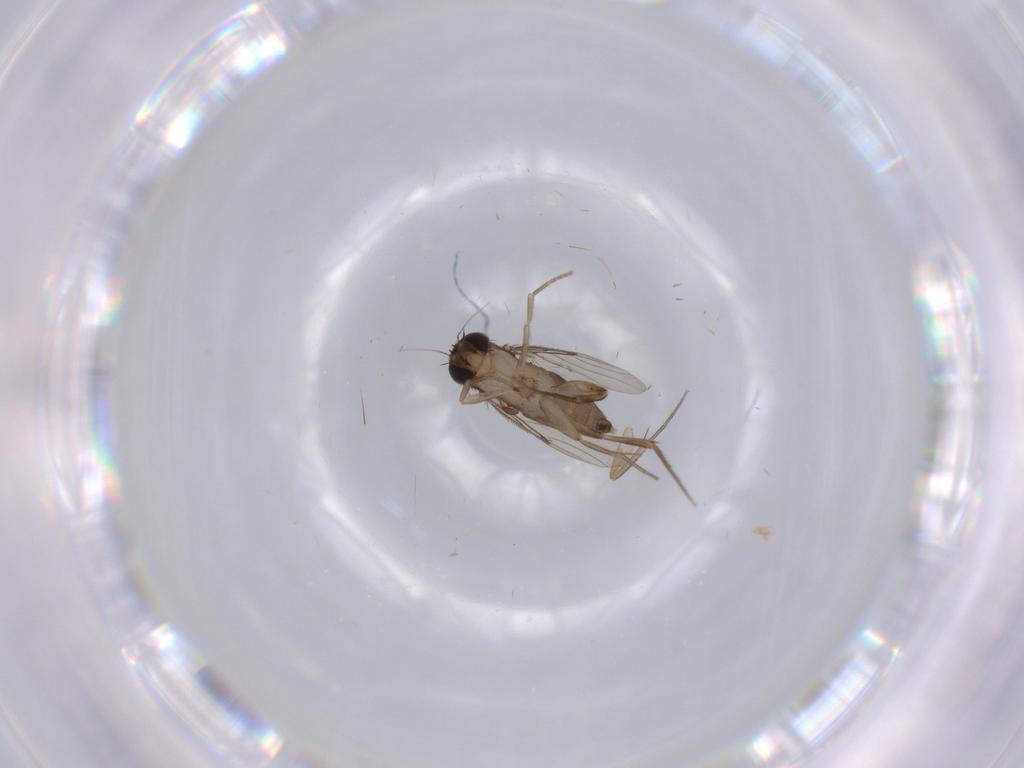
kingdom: Animalia
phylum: Arthropoda
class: Insecta
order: Diptera
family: Phoridae
